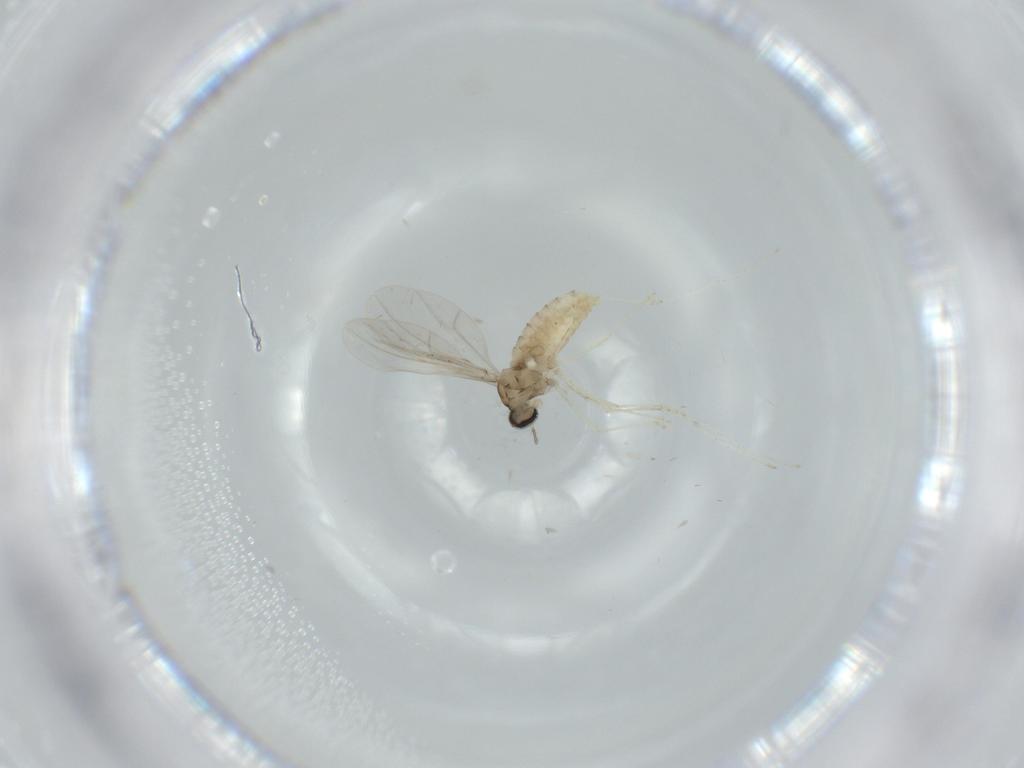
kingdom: Animalia
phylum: Arthropoda
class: Insecta
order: Diptera
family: Cecidomyiidae
